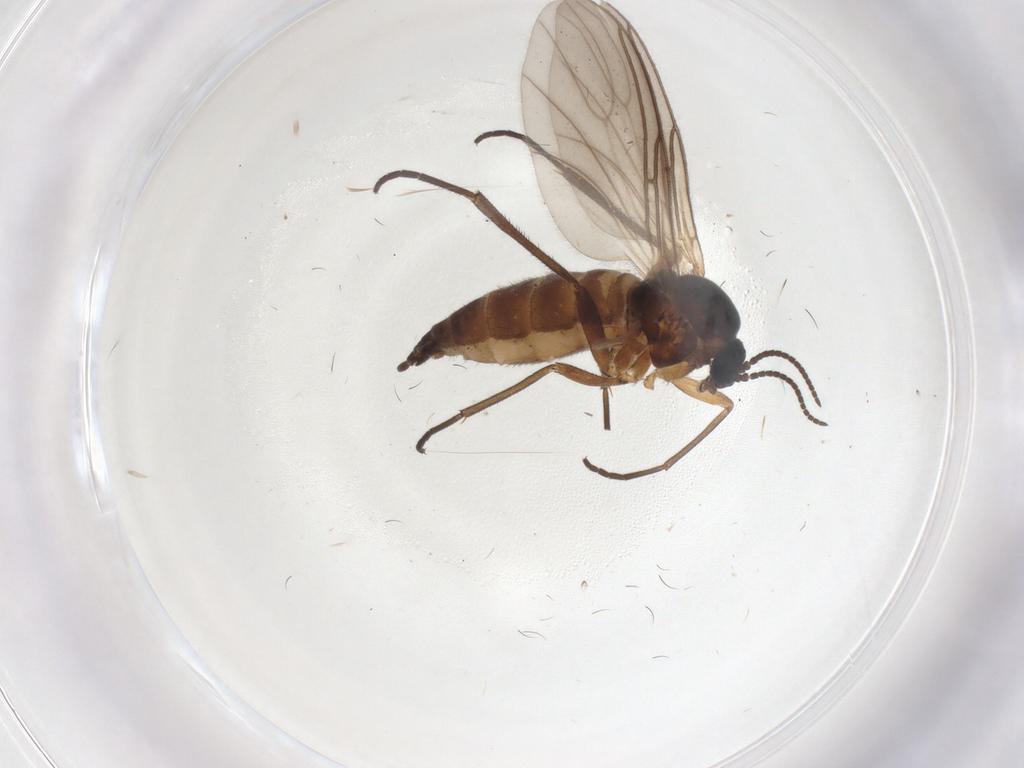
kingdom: Animalia
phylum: Arthropoda
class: Insecta
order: Diptera
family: Sciaridae
